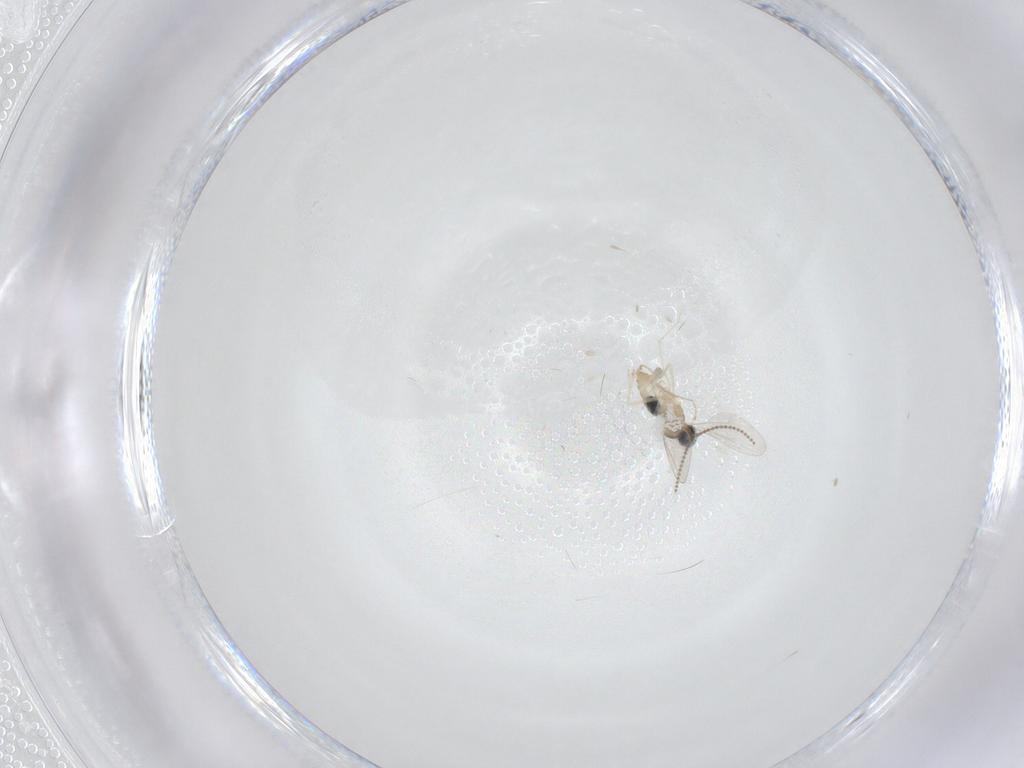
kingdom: Animalia
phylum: Arthropoda
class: Insecta
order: Diptera
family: Cecidomyiidae
